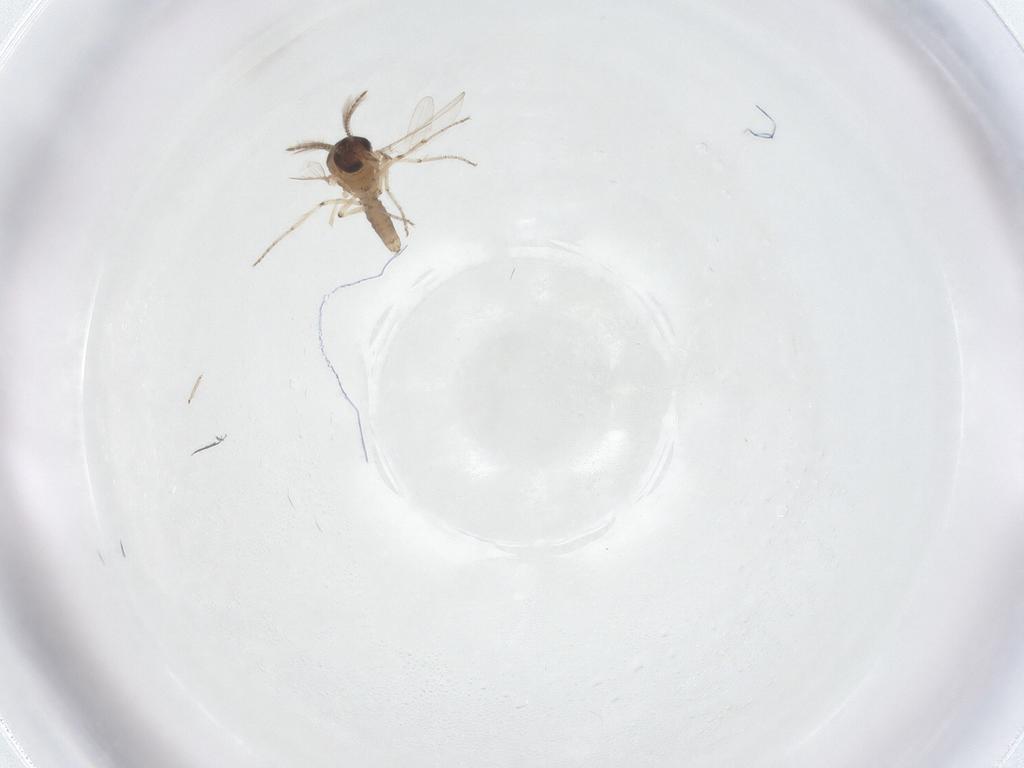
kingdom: Animalia
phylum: Arthropoda
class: Insecta
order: Diptera
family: Ceratopogonidae
